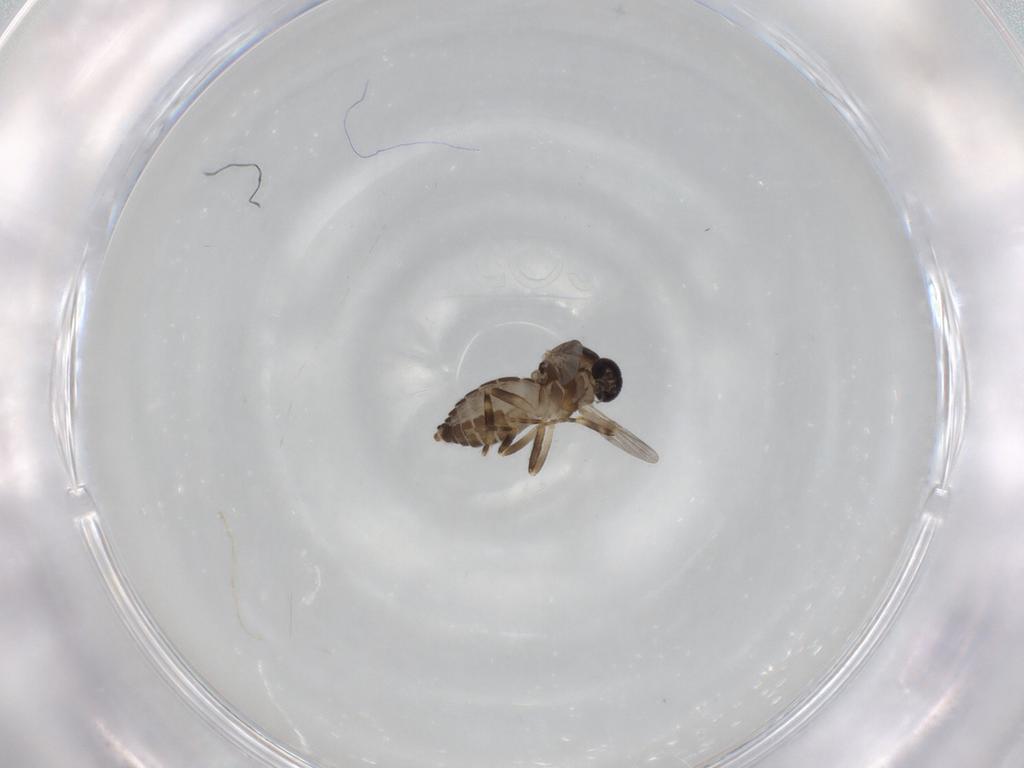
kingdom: Animalia
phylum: Arthropoda
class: Insecta
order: Diptera
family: Ceratopogonidae
